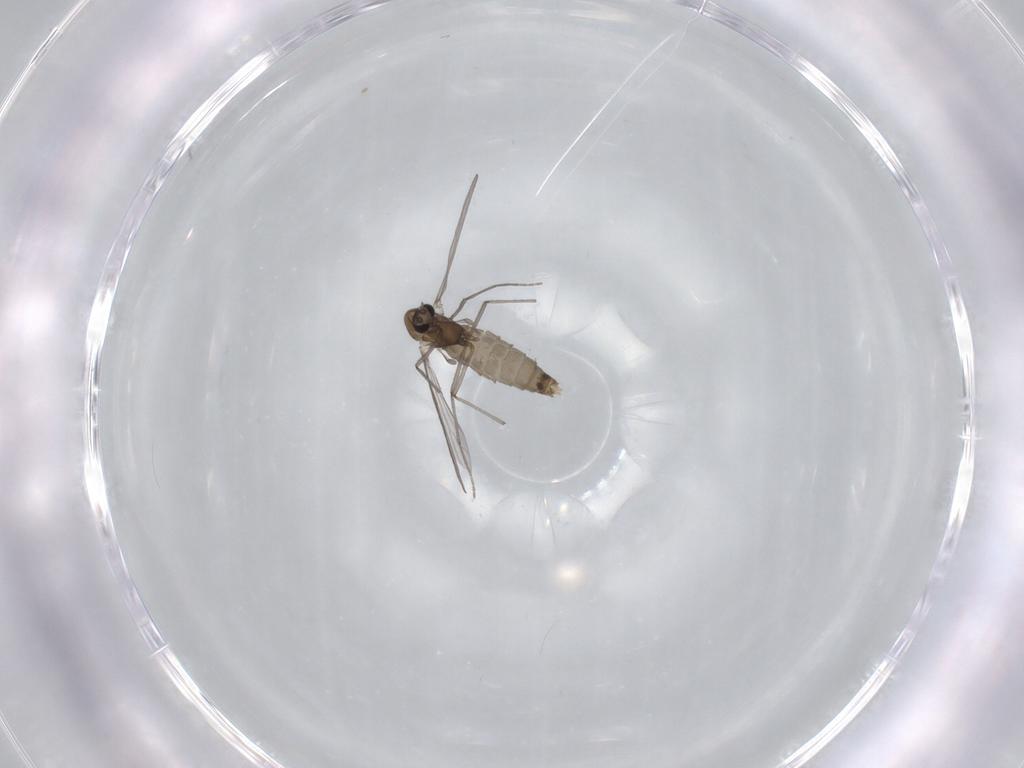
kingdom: Animalia
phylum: Arthropoda
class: Insecta
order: Diptera
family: Chironomidae
